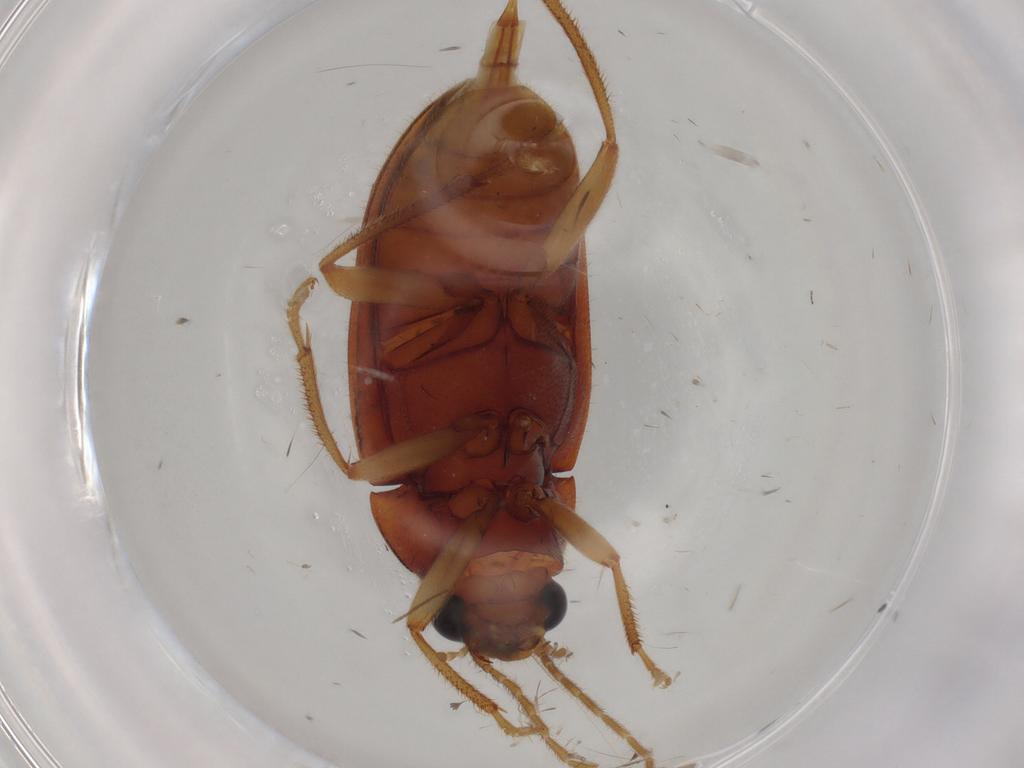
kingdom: Animalia
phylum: Arthropoda
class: Insecta
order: Coleoptera
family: Ptilodactylidae
